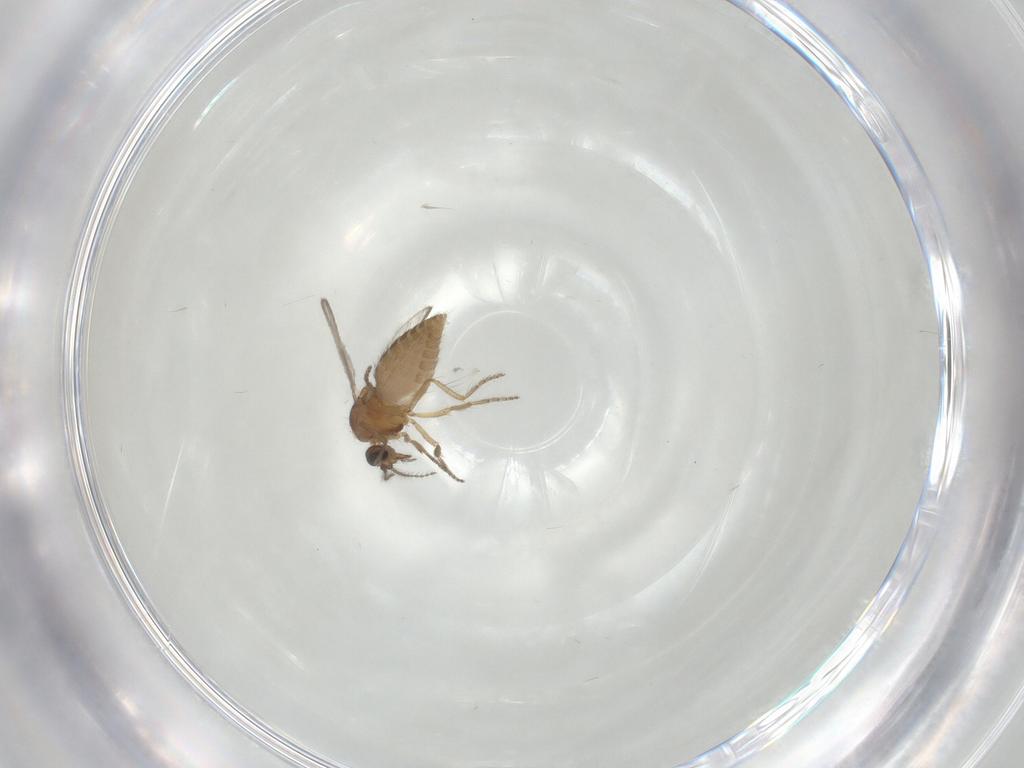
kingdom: Animalia
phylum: Arthropoda
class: Insecta
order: Diptera
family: Ceratopogonidae
